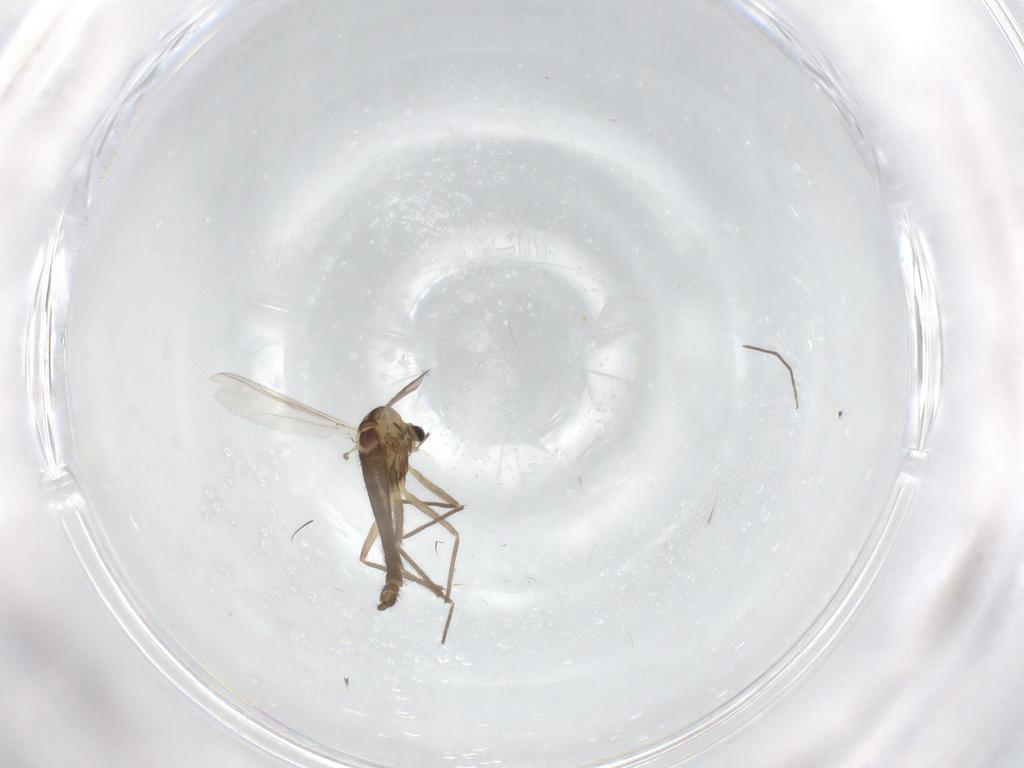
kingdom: Animalia
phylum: Arthropoda
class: Insecta
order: Diptera
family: Chironomidae
